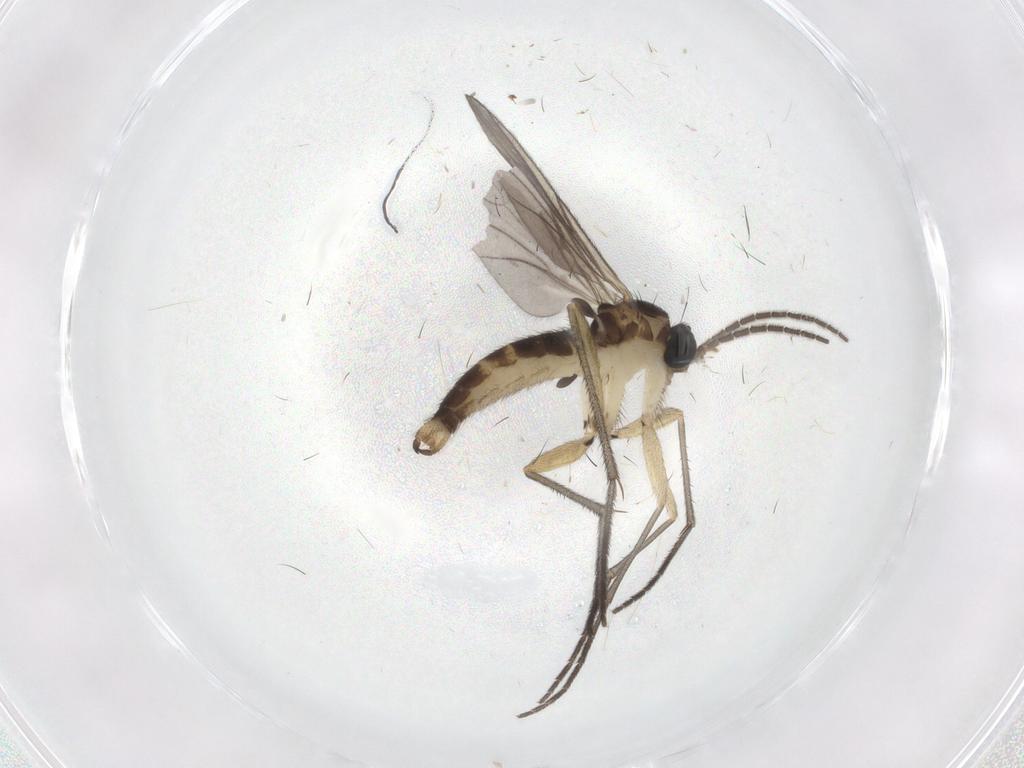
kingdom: Animalia
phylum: Arthropoda
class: Insecta
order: Diptera
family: Sciaridae
